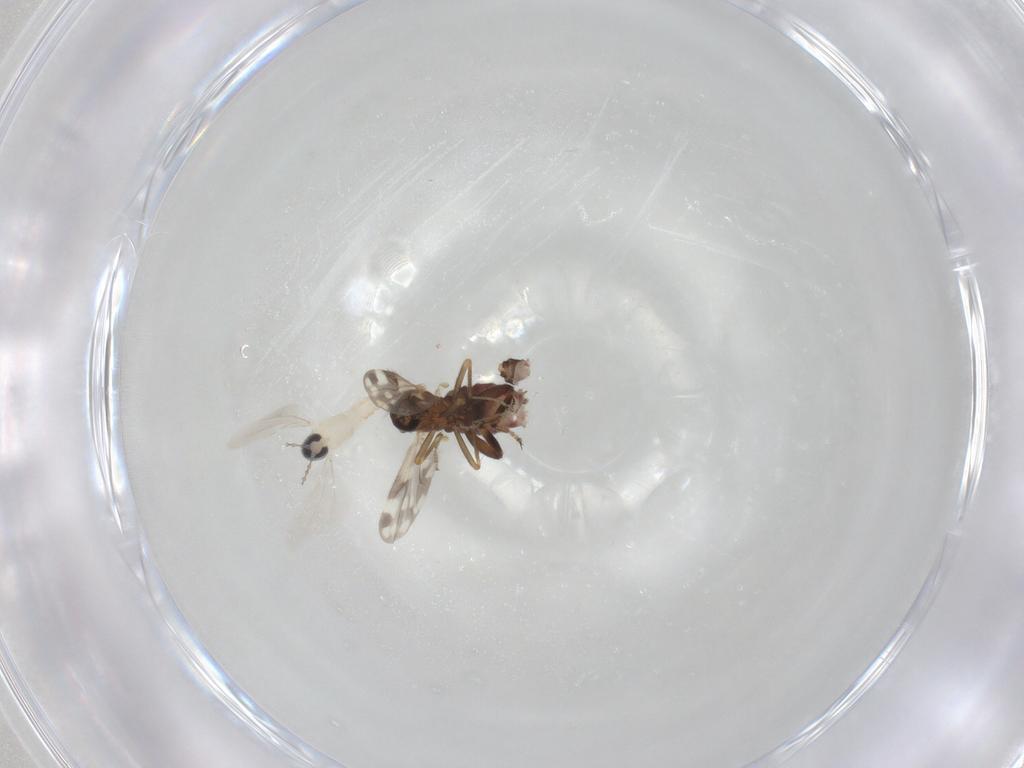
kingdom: Animalia
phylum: Arthropoda
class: Insecta
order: Diptera
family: Ceratopogonidae
